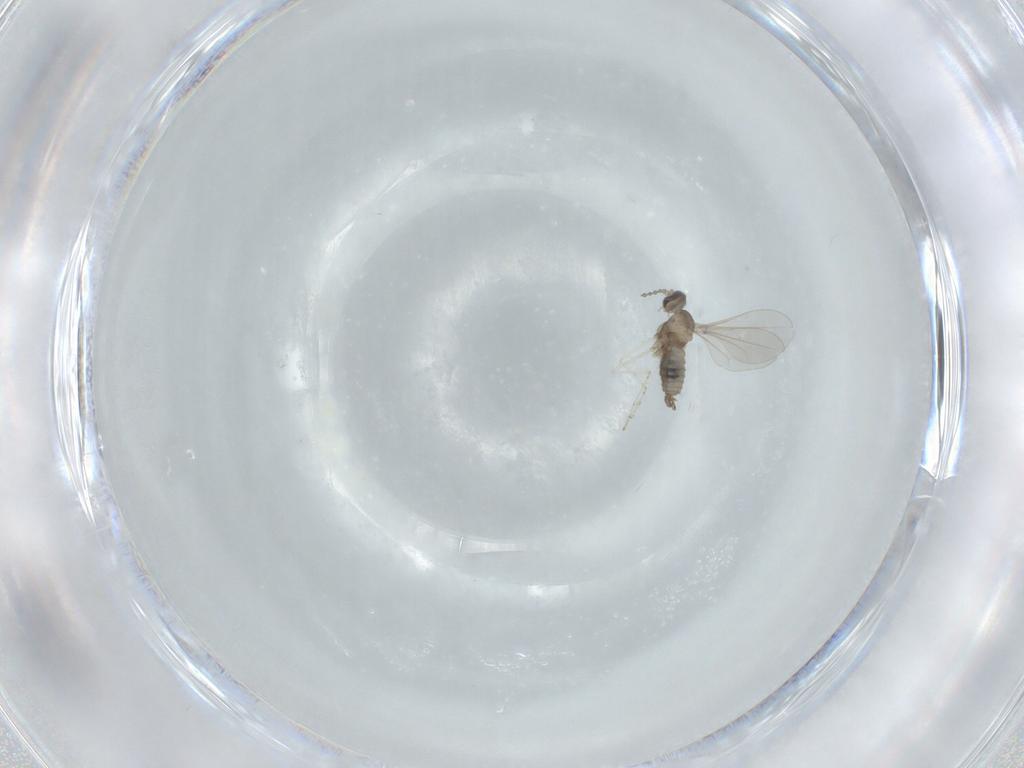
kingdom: Animalia
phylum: Arthropoda
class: Insecta
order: Diptera
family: Cecidomyiidae
